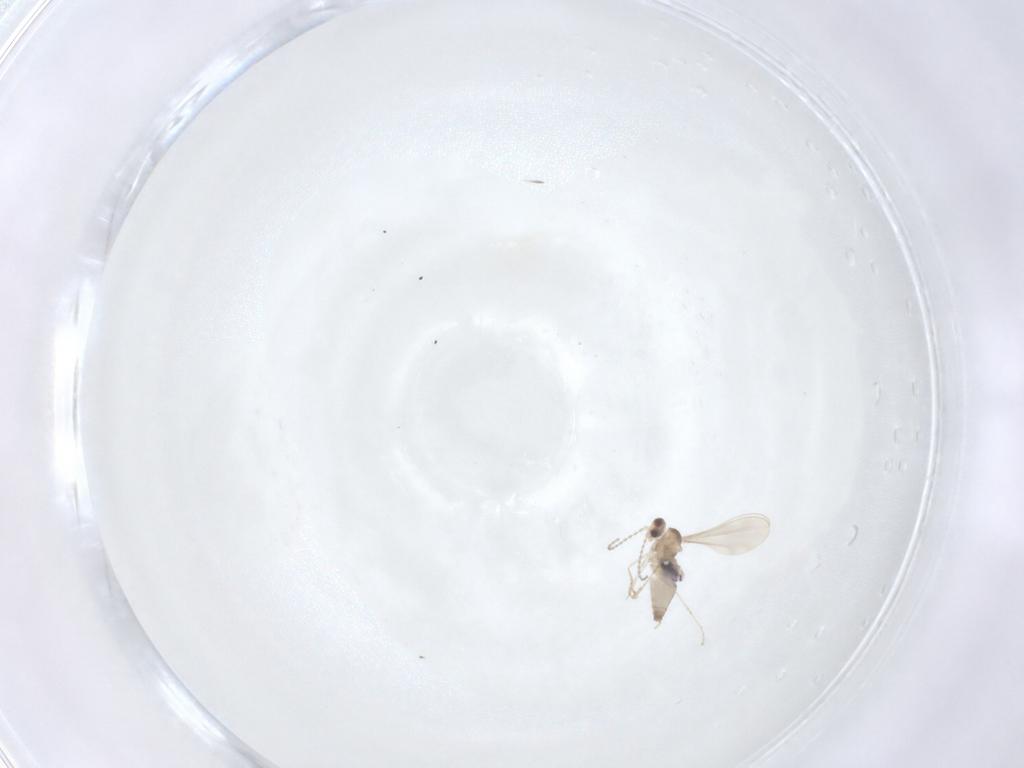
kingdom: Animalia
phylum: Arthropoda
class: Insecta
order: Diptera
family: Cecidomyiidae
